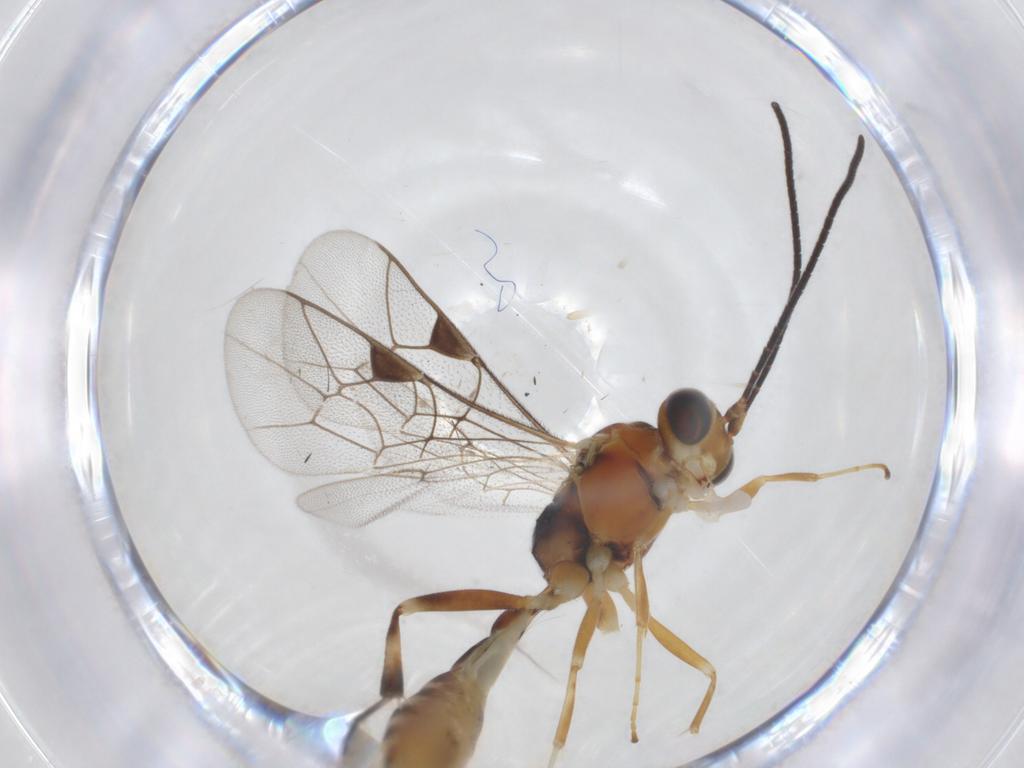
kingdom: Animalia
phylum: Arthropoda
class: Insecta
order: Hymenoptera
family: Ichneumonidae
